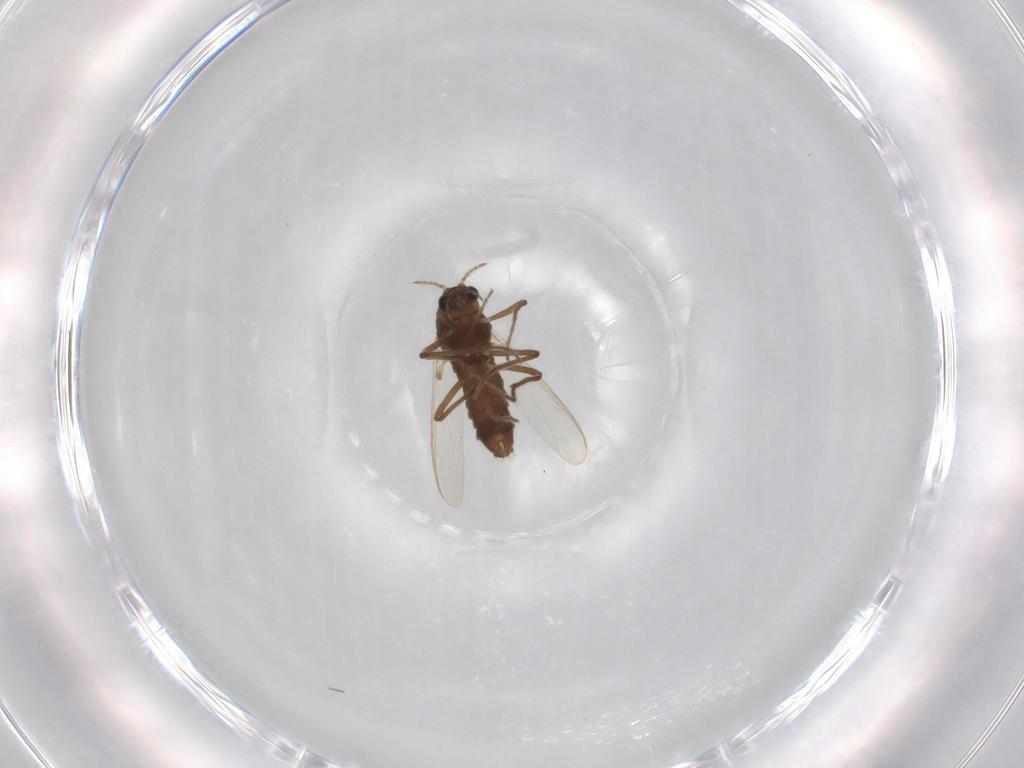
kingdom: Animalia
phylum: Arthropoda
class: Insecta
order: Diptera
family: Chironomidae
